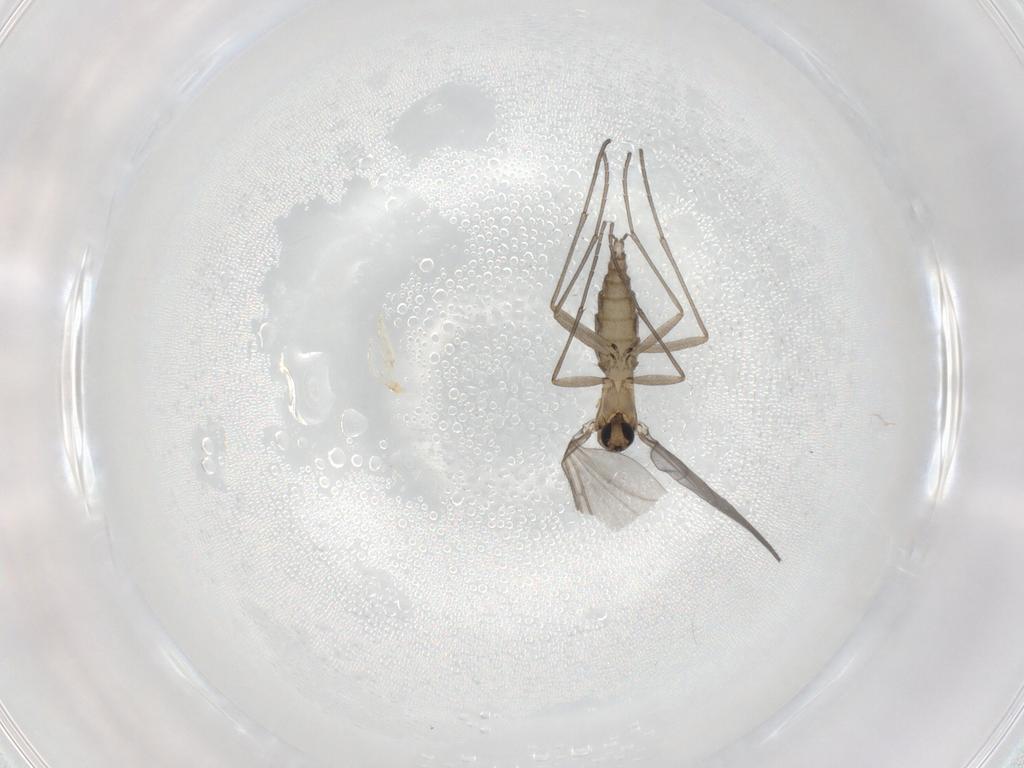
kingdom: Animalia
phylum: Arthropoda
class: Insecta
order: Diptera
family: Sciaridae
